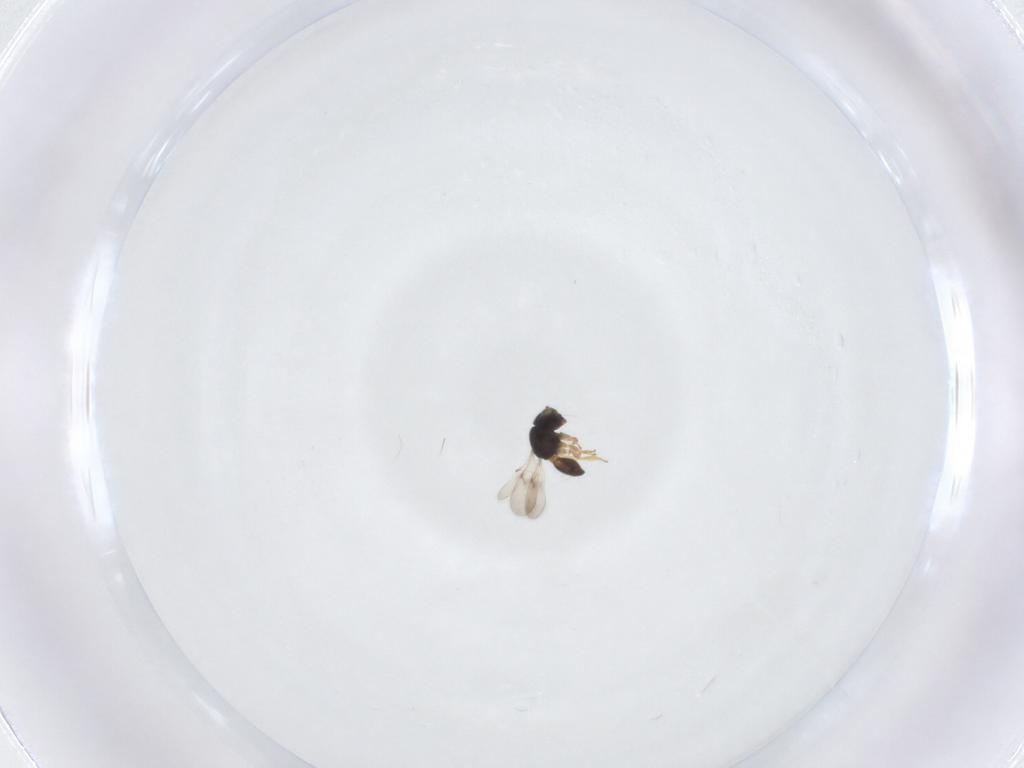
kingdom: Animalia
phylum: Arthropoda
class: Insecta
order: Hymenoptera
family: Scelionidae
